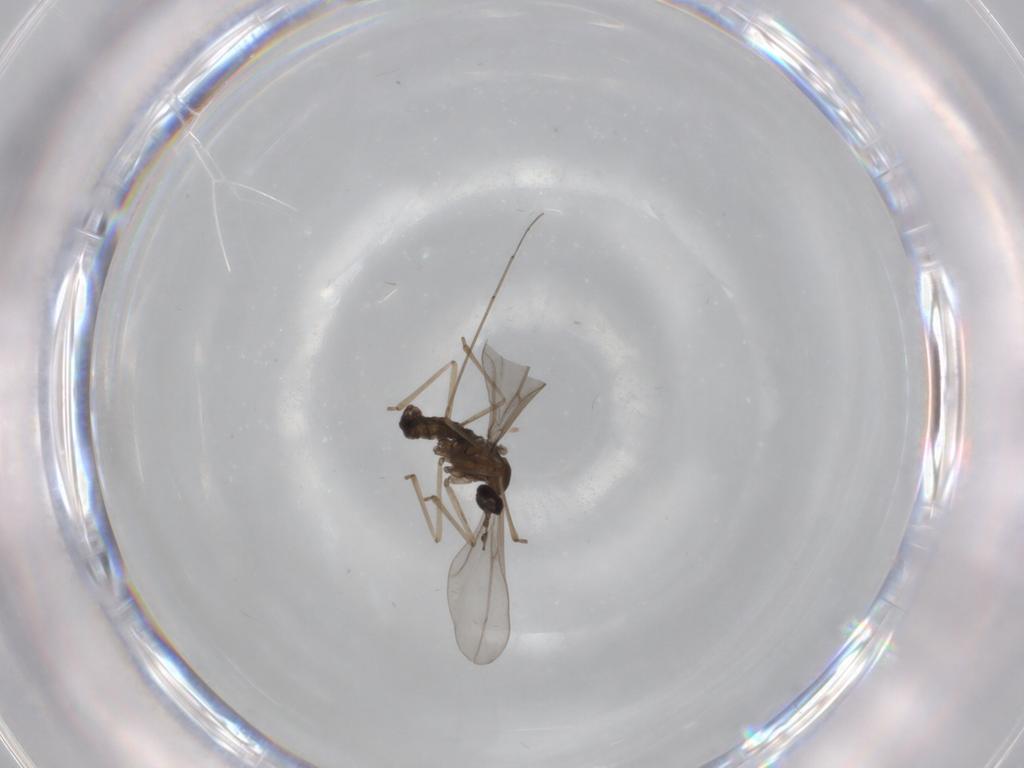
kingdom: Animalia
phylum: Arthropoda
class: Insecta
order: Diptera
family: Cecidomyiidae
